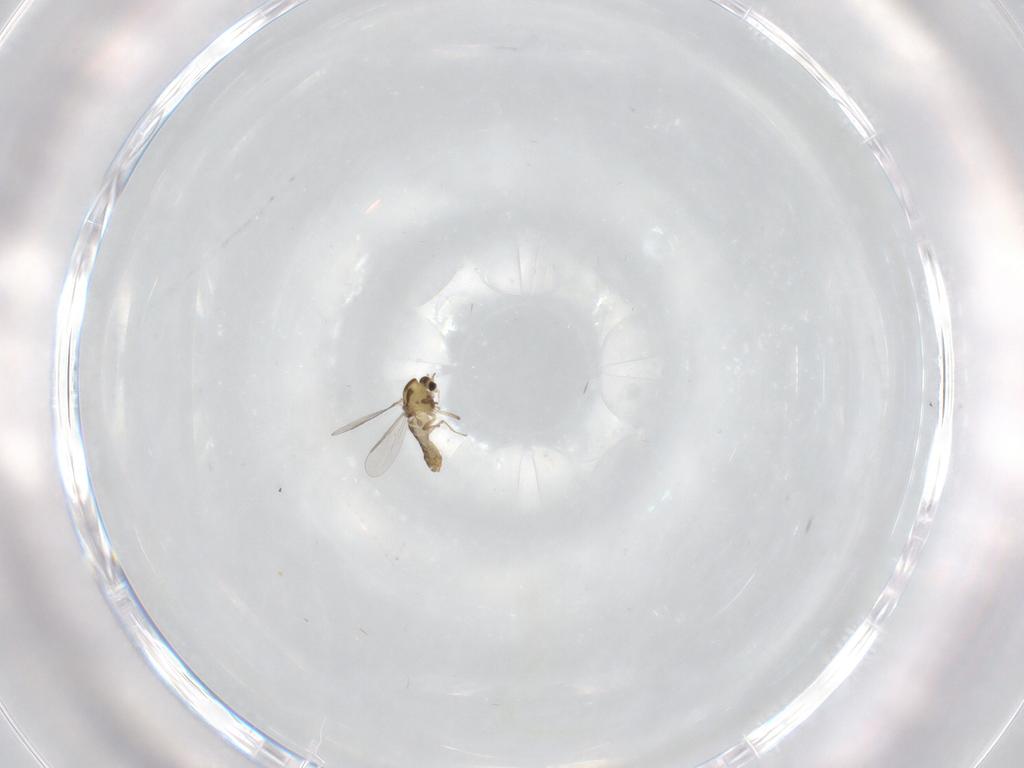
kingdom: Animalia
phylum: Arthropoda
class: Insecta
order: Diptera
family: Chironomidae
